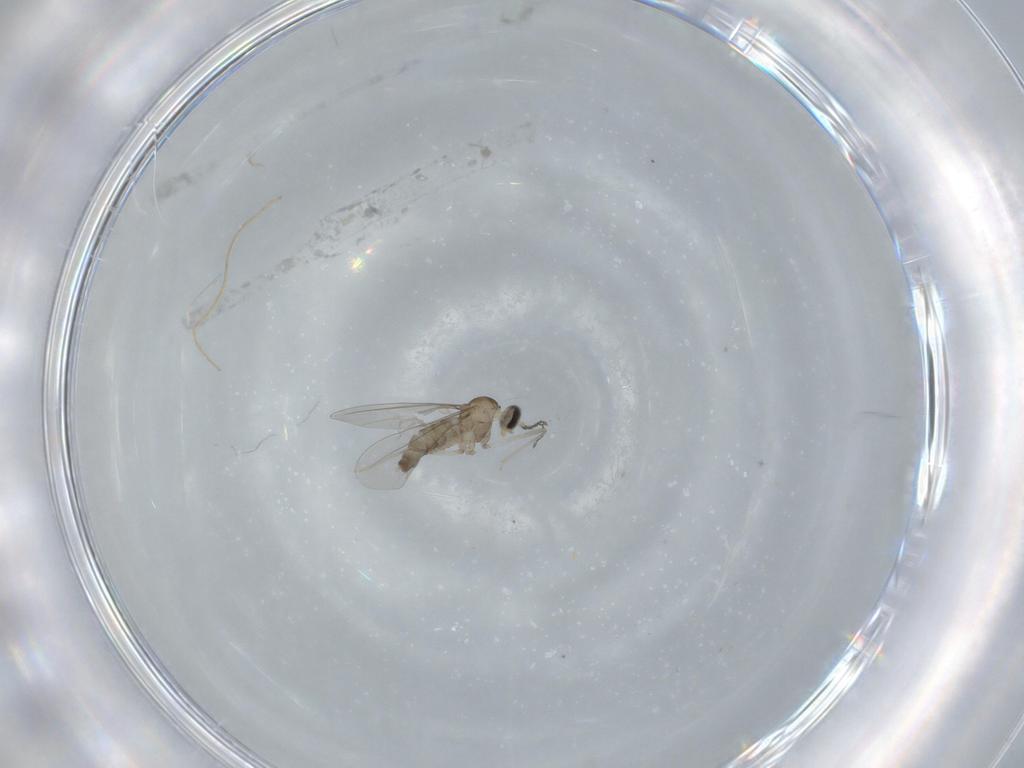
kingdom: Animalia
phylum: Arthropoda
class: Insecta
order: Diptera
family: Cecidomyiidae
